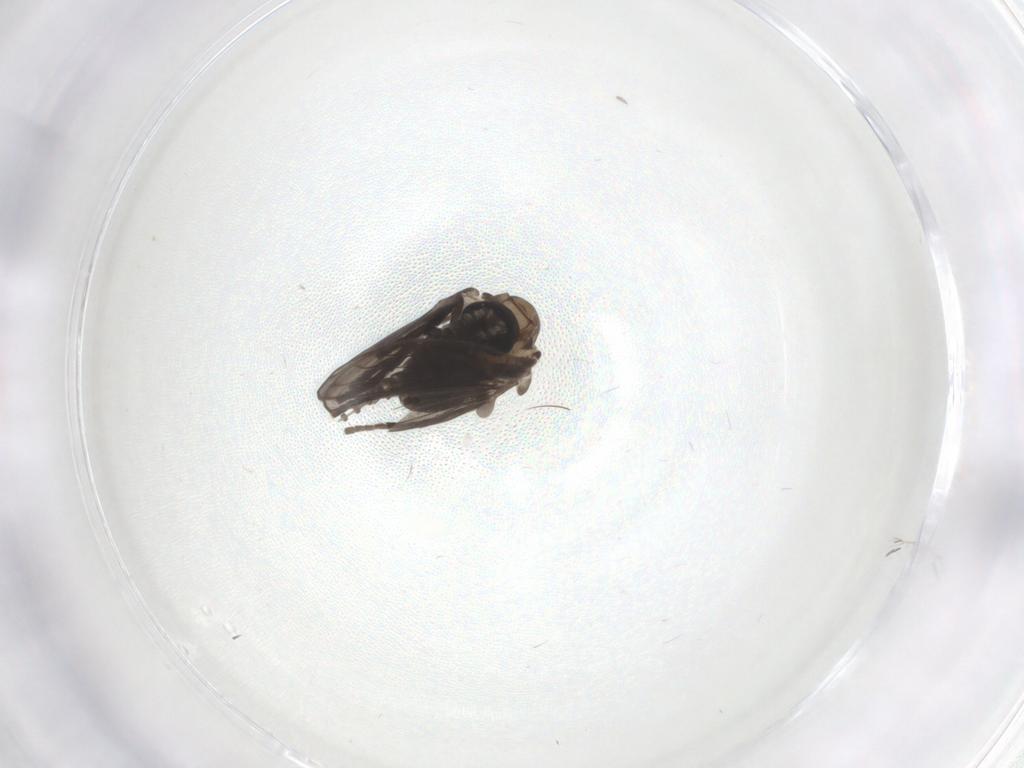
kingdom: Animalia
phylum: Arthropoda
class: Insecta
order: Diptera
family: Psychodidae
